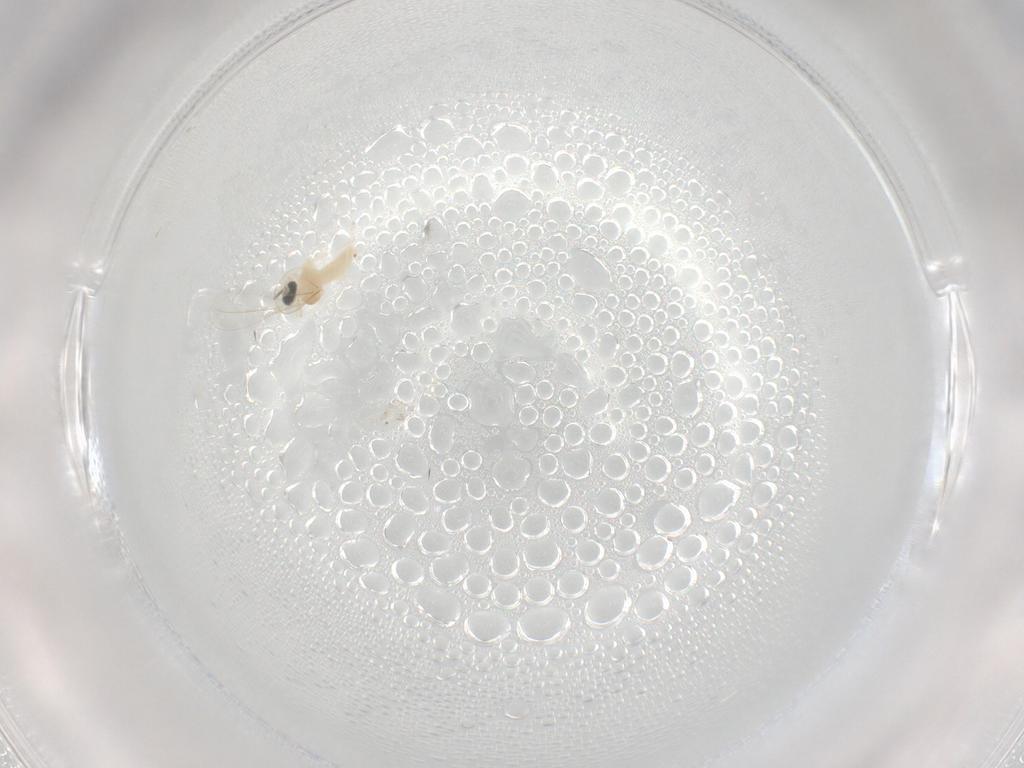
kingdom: Animalia
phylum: Arthropoda
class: Insecta
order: Diptera
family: Cecidomyiidae
